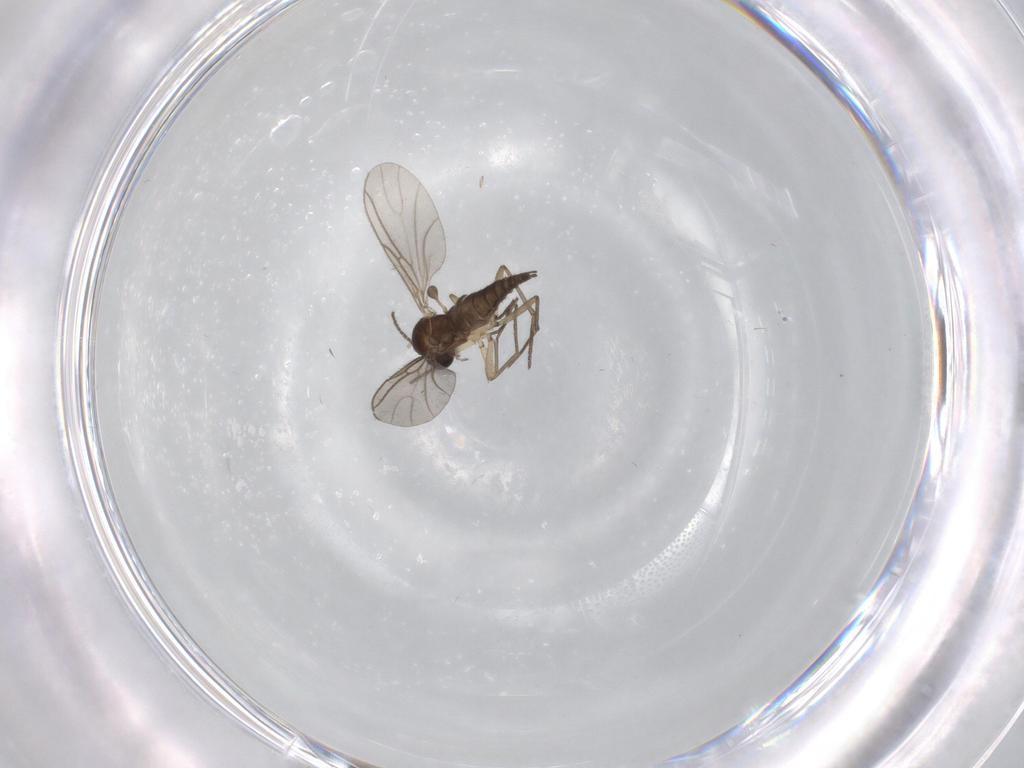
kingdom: Animalia
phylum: Arthropoda
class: Insecta
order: Diptera
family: Sciaridae
